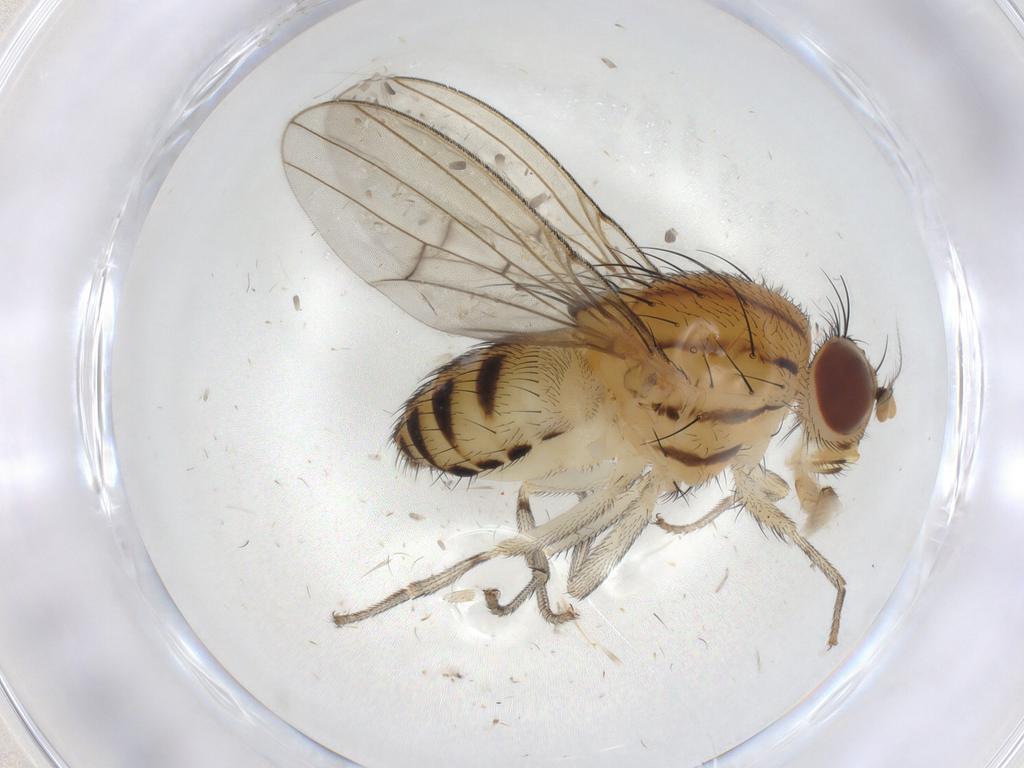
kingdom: Animalia
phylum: Arthropoda
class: Insecta
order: Diptera
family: Lauxaniidae
